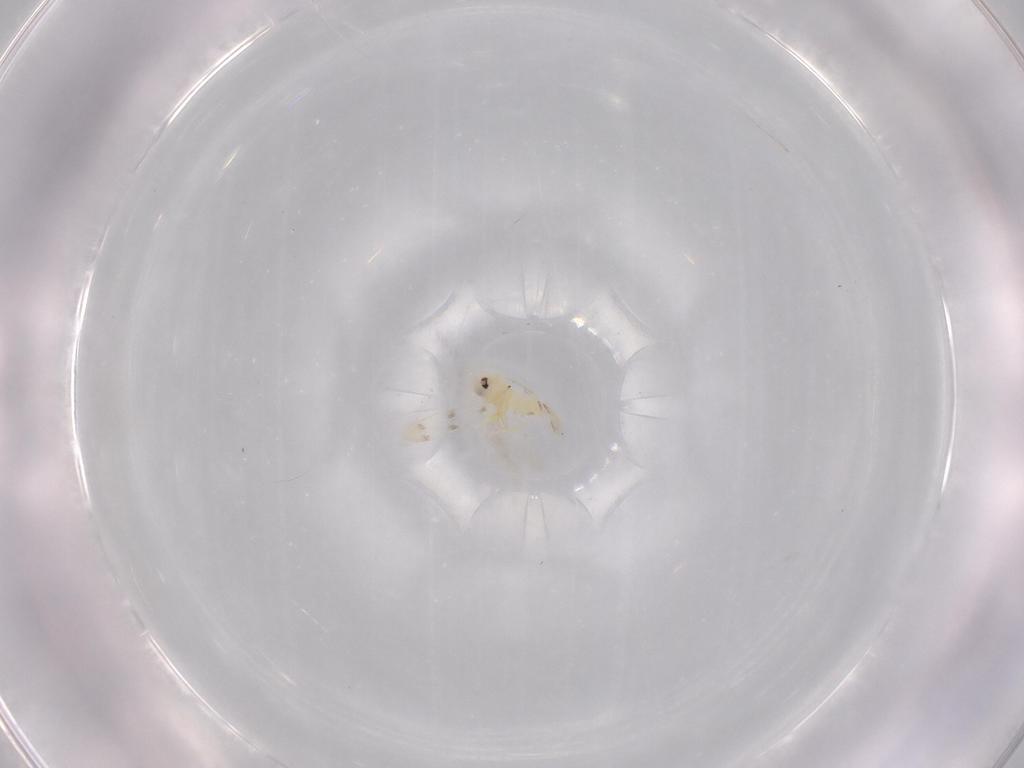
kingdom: Animalia
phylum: Arthropoda
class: Insecta
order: Hemiptera
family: Aleyrodidae
